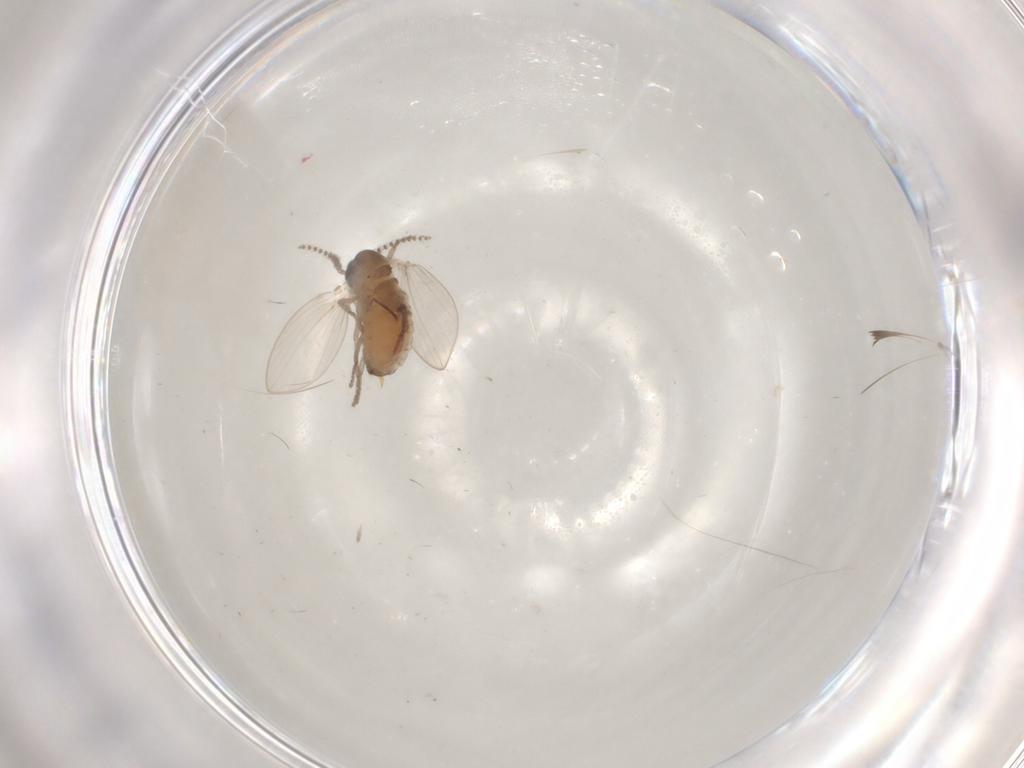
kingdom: Animalia
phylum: Arthropoda
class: Insecta
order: Diptera
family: Psychodidae
